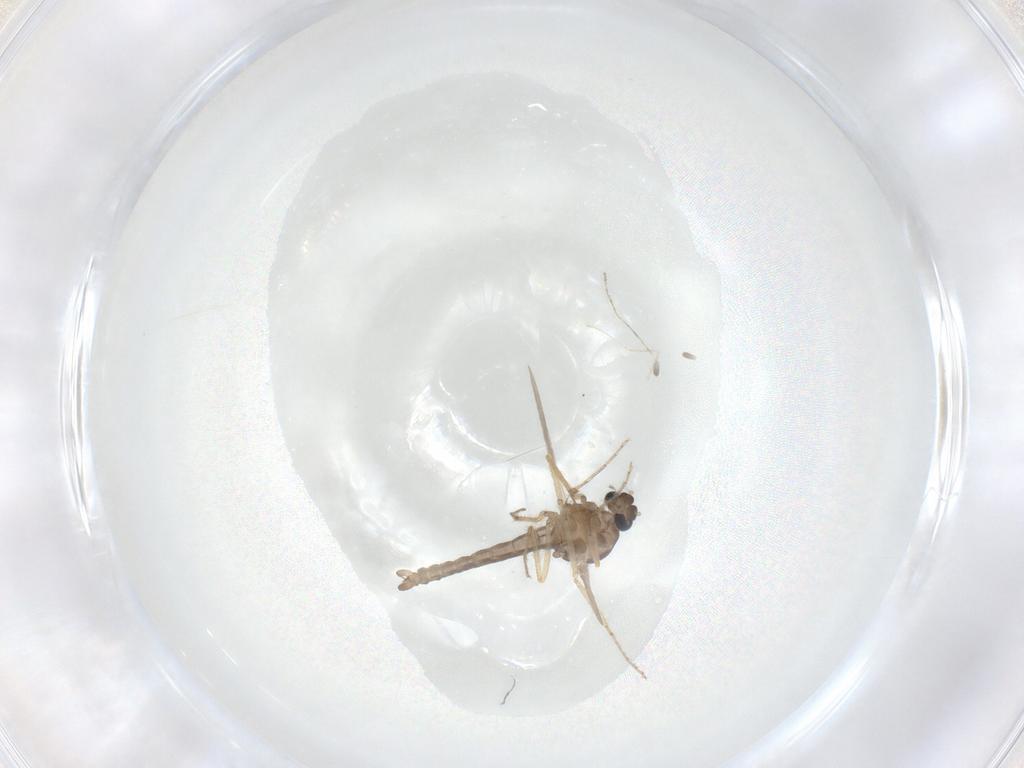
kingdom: Animalia
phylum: Arthropoda
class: Insecta
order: Diptera
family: Ceratopogonidae
